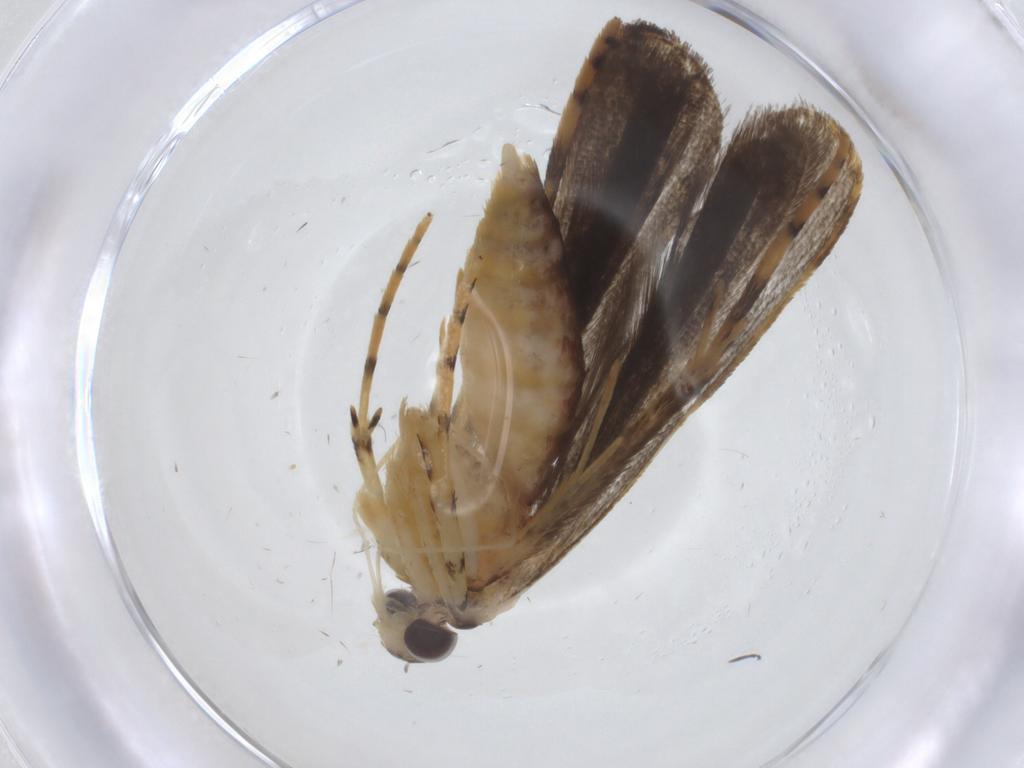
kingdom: Animalia
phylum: Arthropoda
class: Insecta
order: Lepidoptera
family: Oecophoridae
